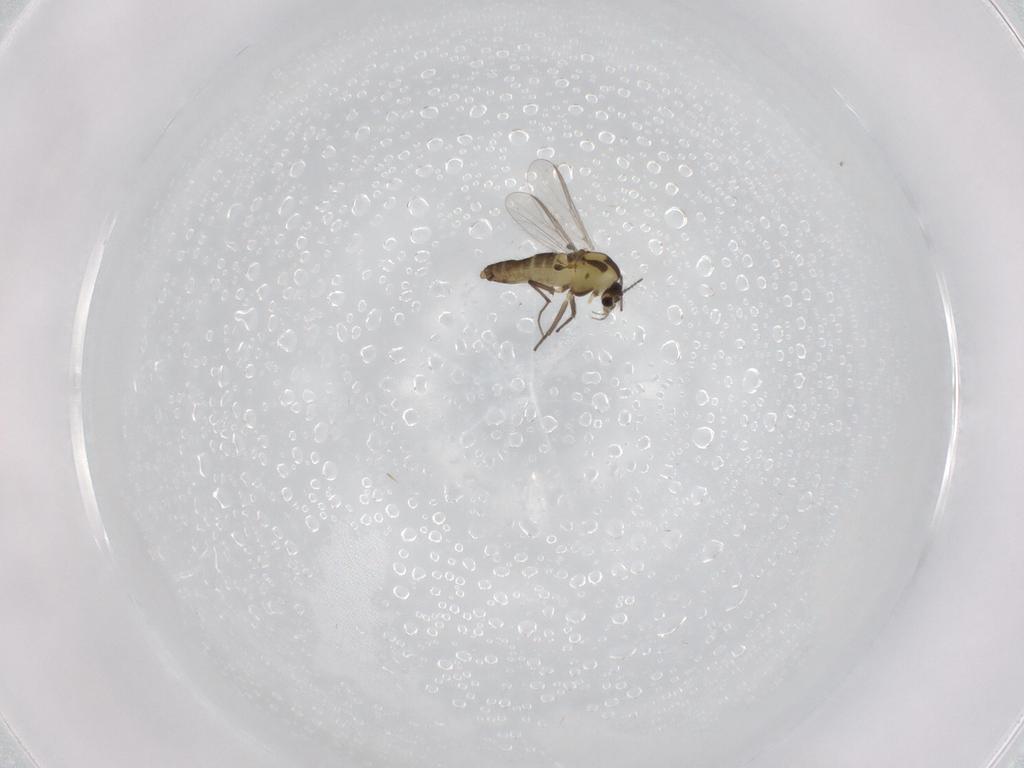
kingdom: Animalia
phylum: Arthropoda
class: Insecta
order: Diptera
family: Chironomidae
